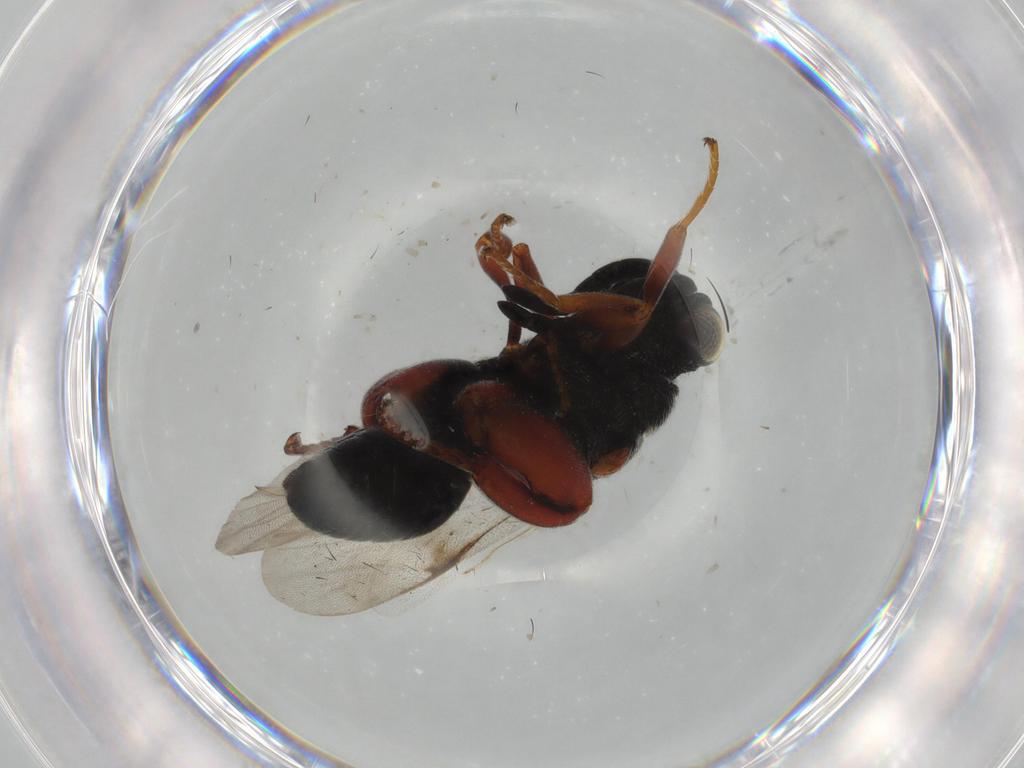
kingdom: Animalia
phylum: Arthropoda
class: Insecta
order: Hymenoptera
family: Chalcididae
